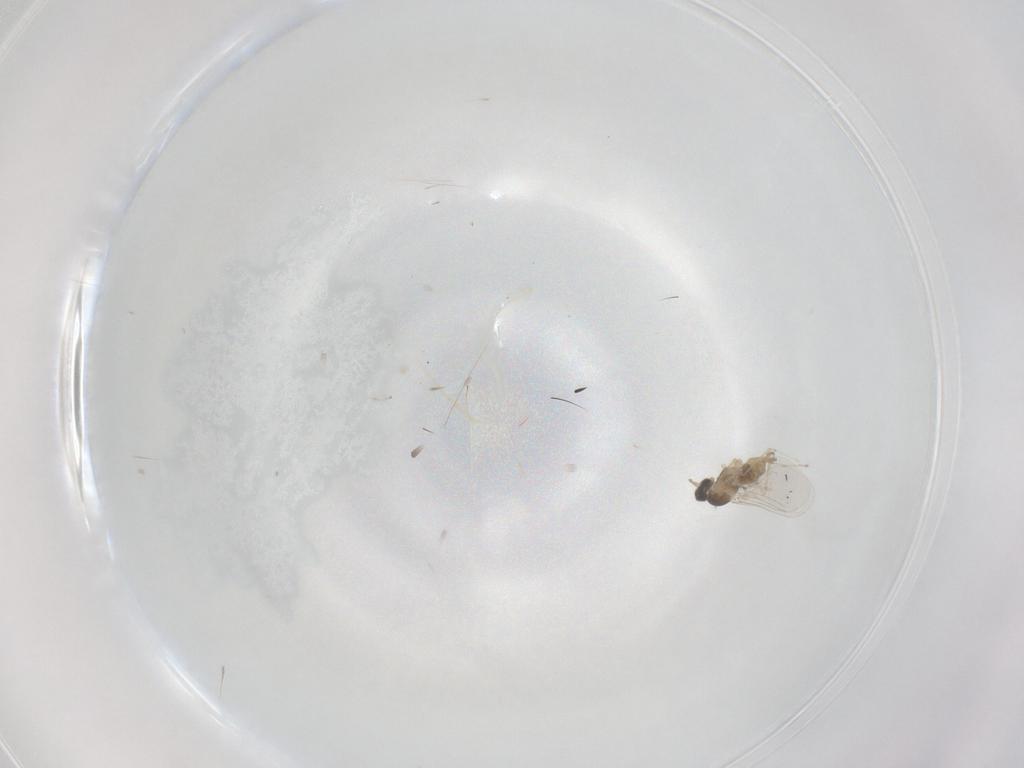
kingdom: Animalia
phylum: Arthropoda
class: Insecta
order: Diptera
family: Cecidomyiidae
